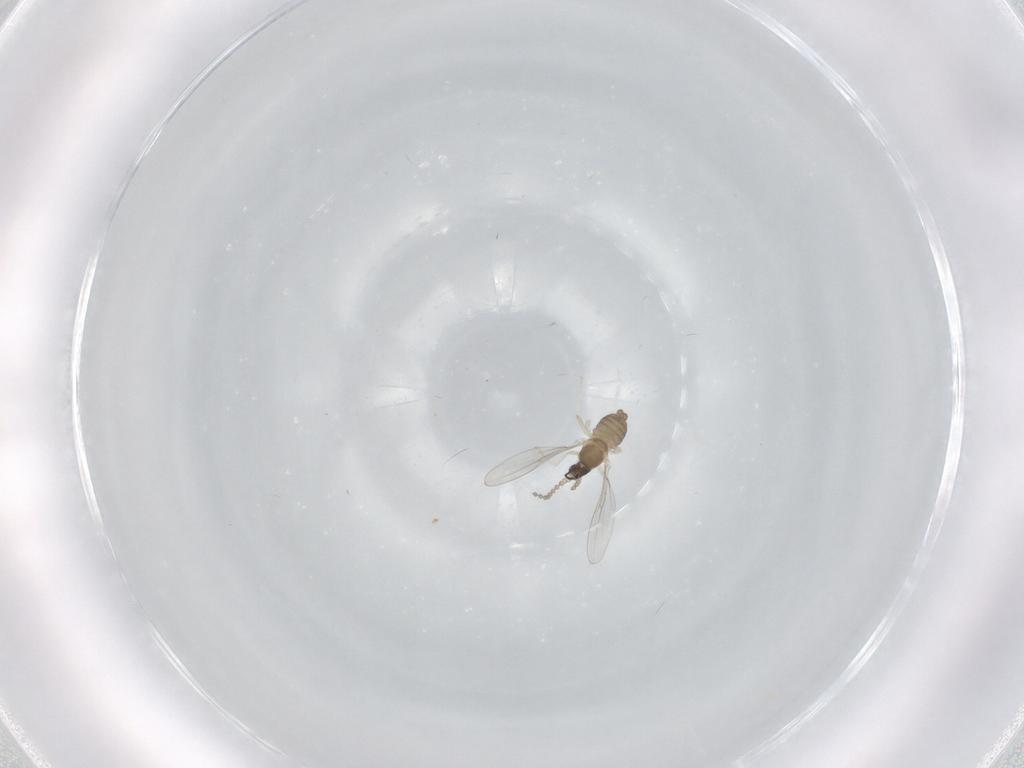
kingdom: Animalia
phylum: Arthropoda
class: Insecta
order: Diptera
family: Cecidomyiidae
